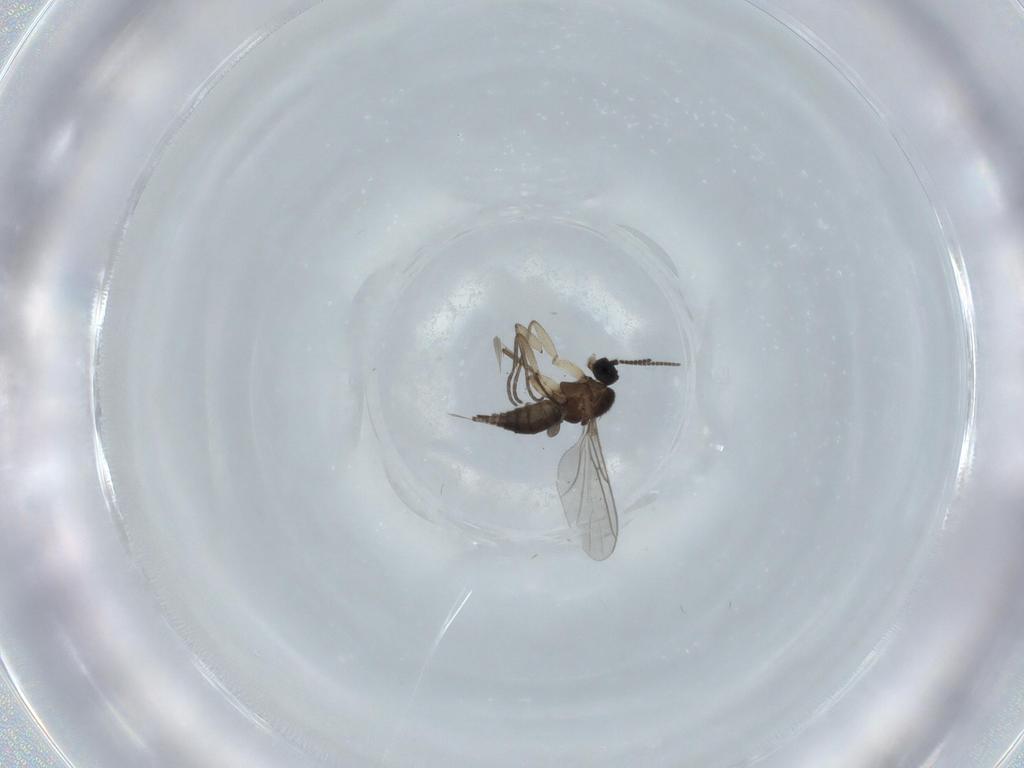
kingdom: Animalia
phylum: Arthropoda
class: Insecta
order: Diptera
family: Sciaridae
